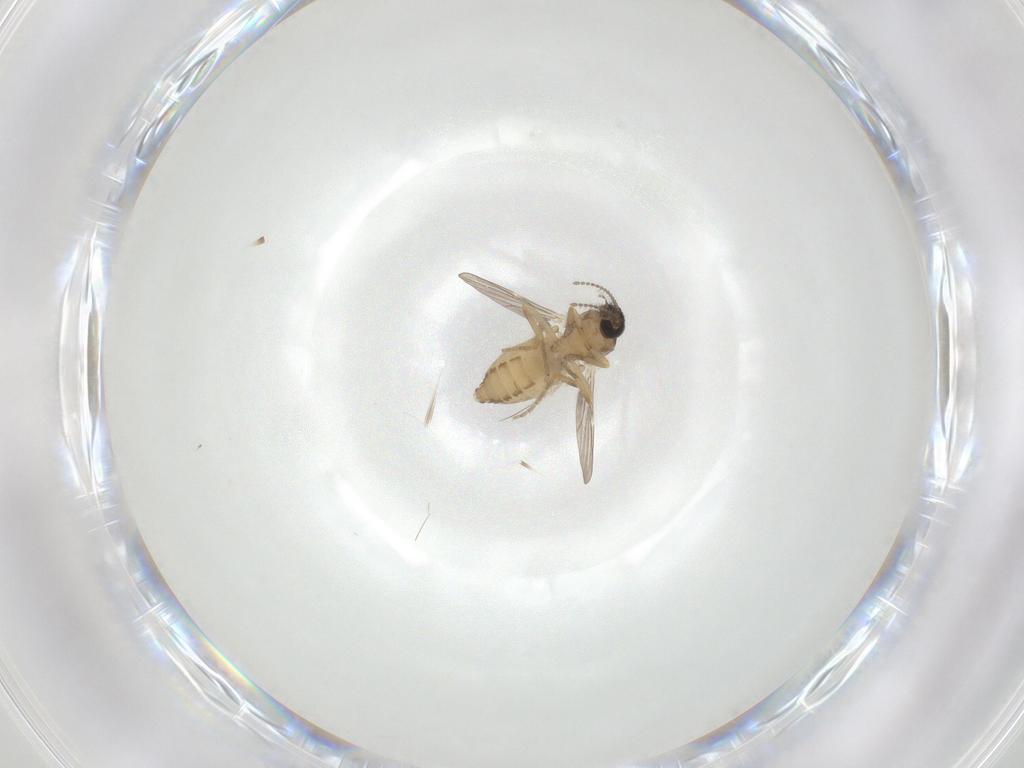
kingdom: Animalia
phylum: Arthropoda
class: Insecta
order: Diptera
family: Ceratopogonidae
